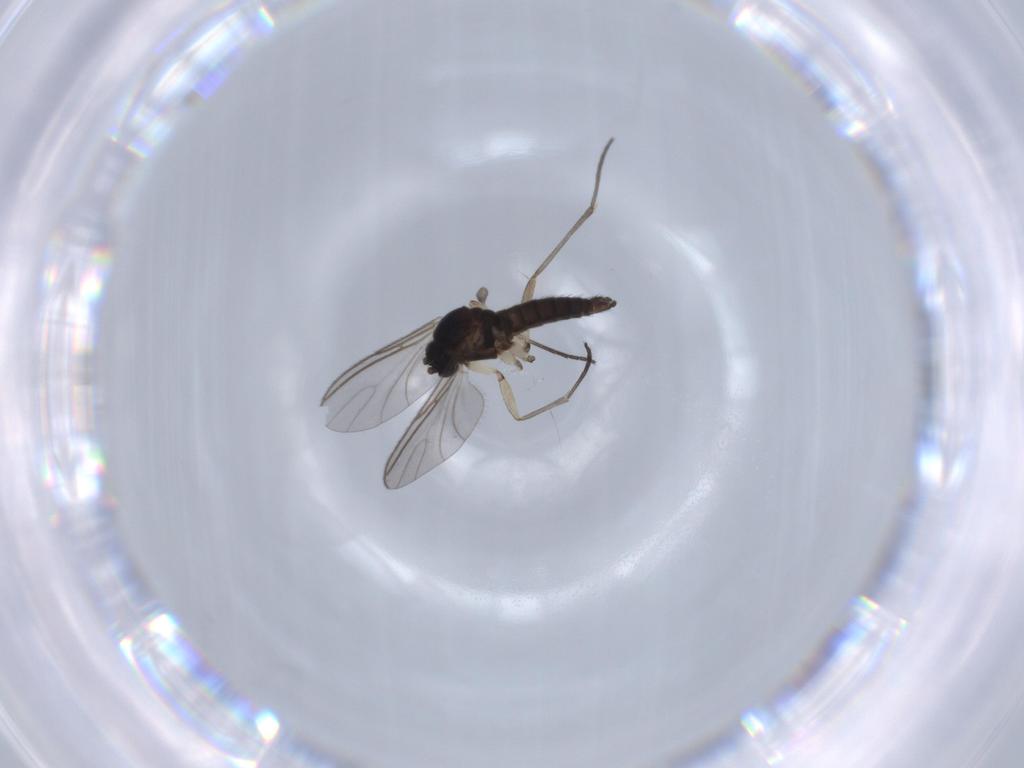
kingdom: Animalia
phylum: Arthropoda
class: Insecta
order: Diptera
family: Sciaridae
